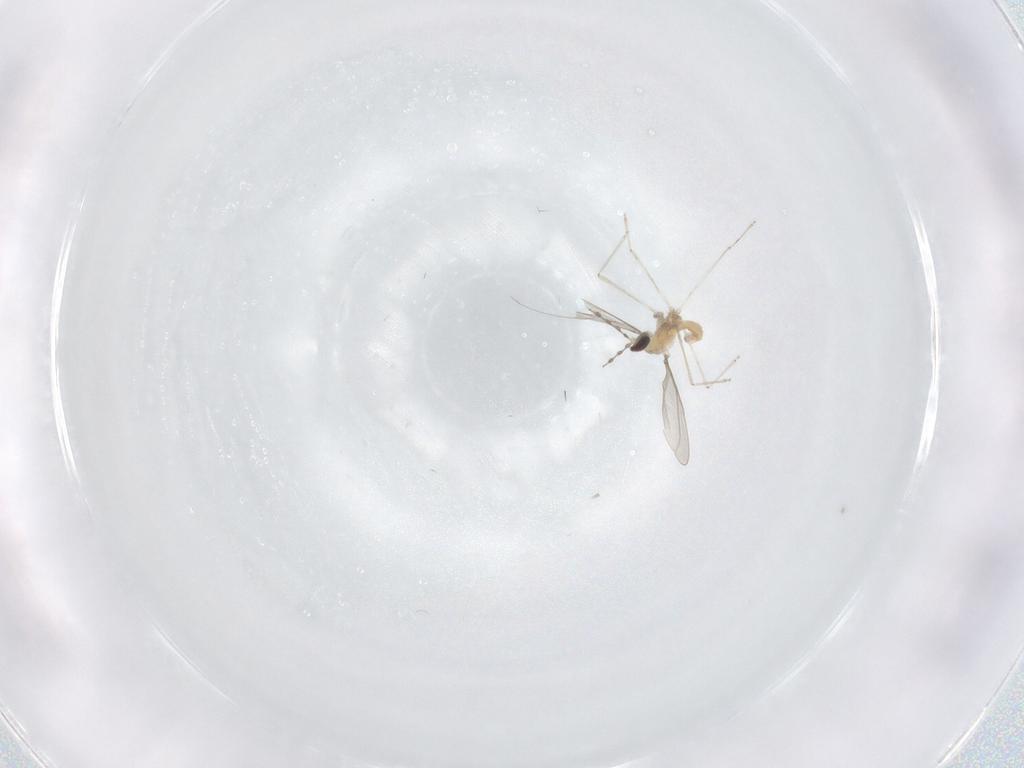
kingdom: Animalia
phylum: Arthropoda
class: Insecta
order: Diptera
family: Cecidomyiidae
